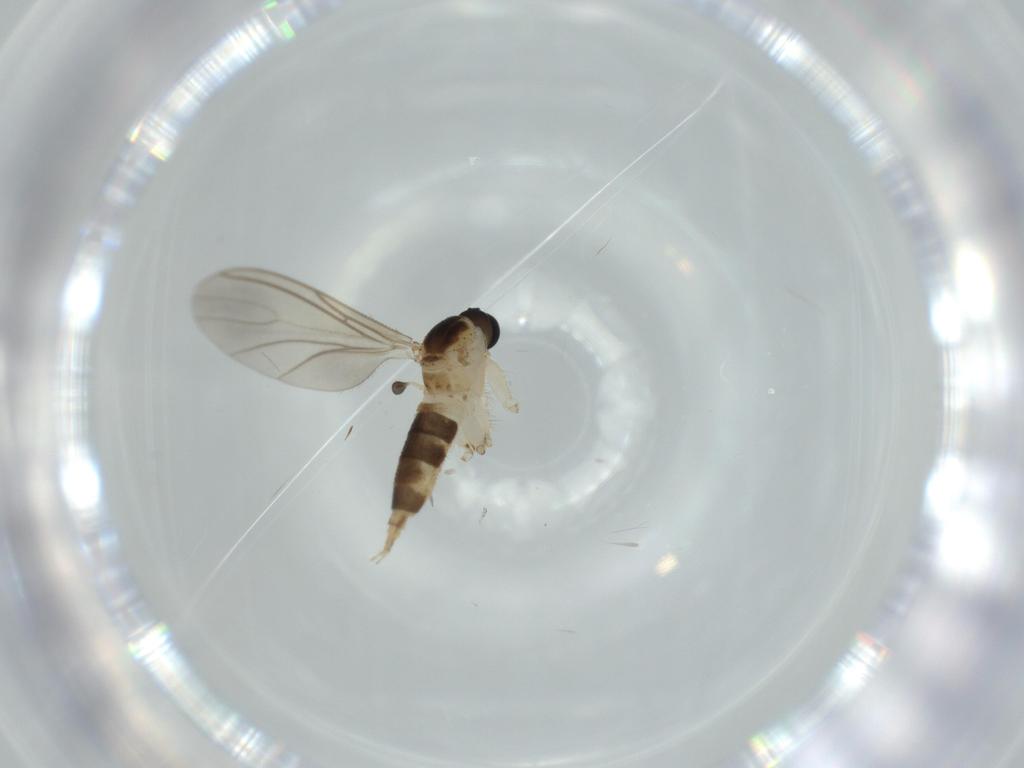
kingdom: Animalia
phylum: Arthropoda
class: Insecta
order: Diptera
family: Sciaridae
